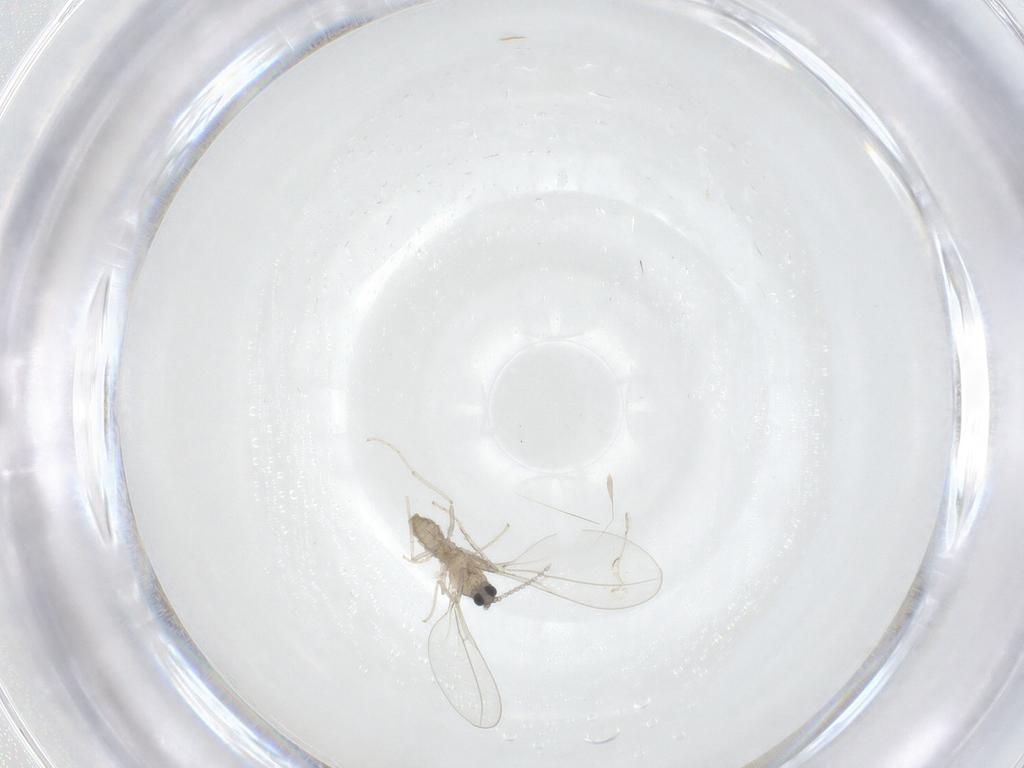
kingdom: Animalia
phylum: Arthropoda
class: Insecta
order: Diptera
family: Cecidomyiidae
